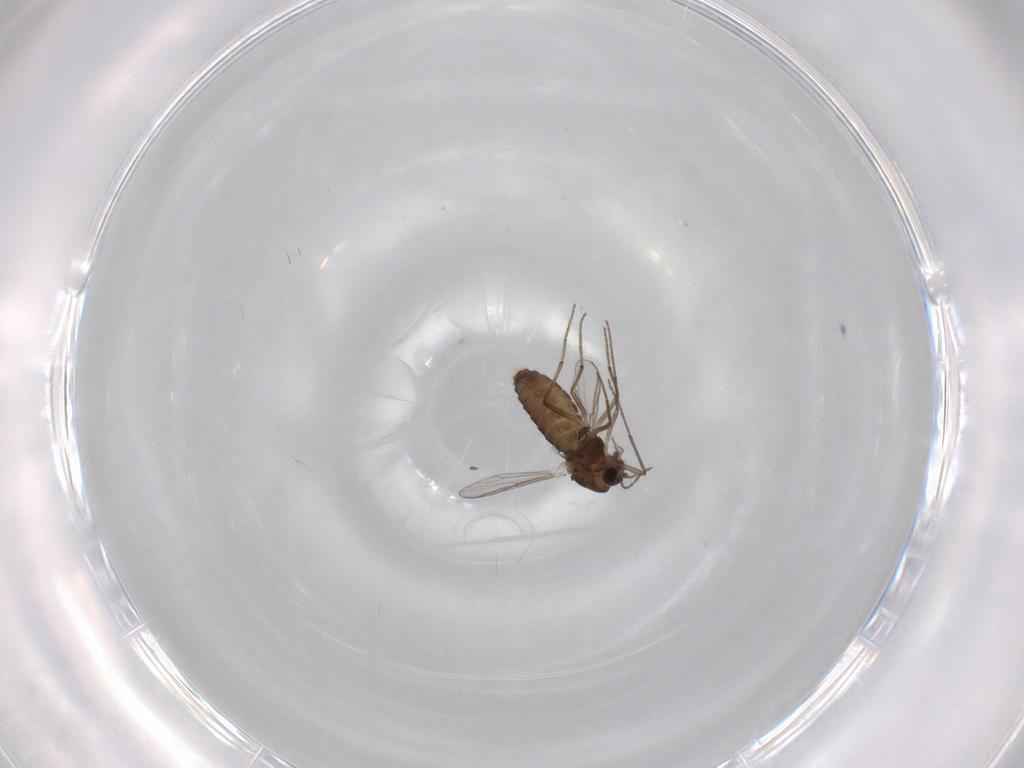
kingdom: Animalia
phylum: Arthropoda
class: Insecta
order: Diptera
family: Chironomidae
